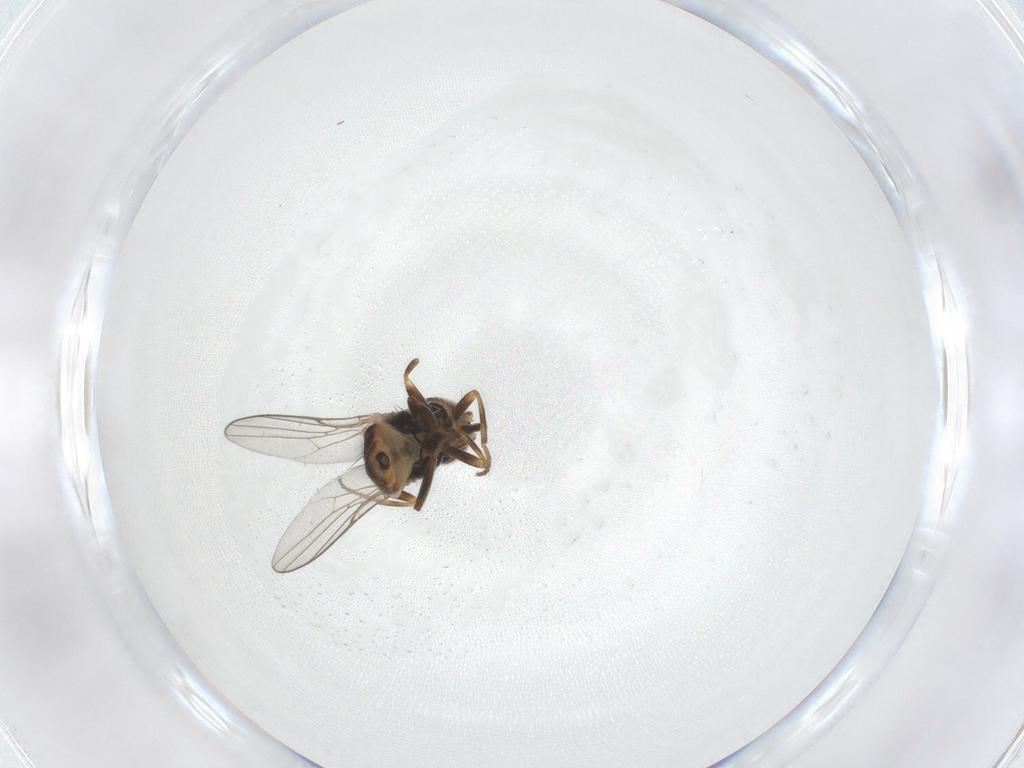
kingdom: Animalia
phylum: Arthropoda
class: Insecta
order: Diptera
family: Chloropidae
